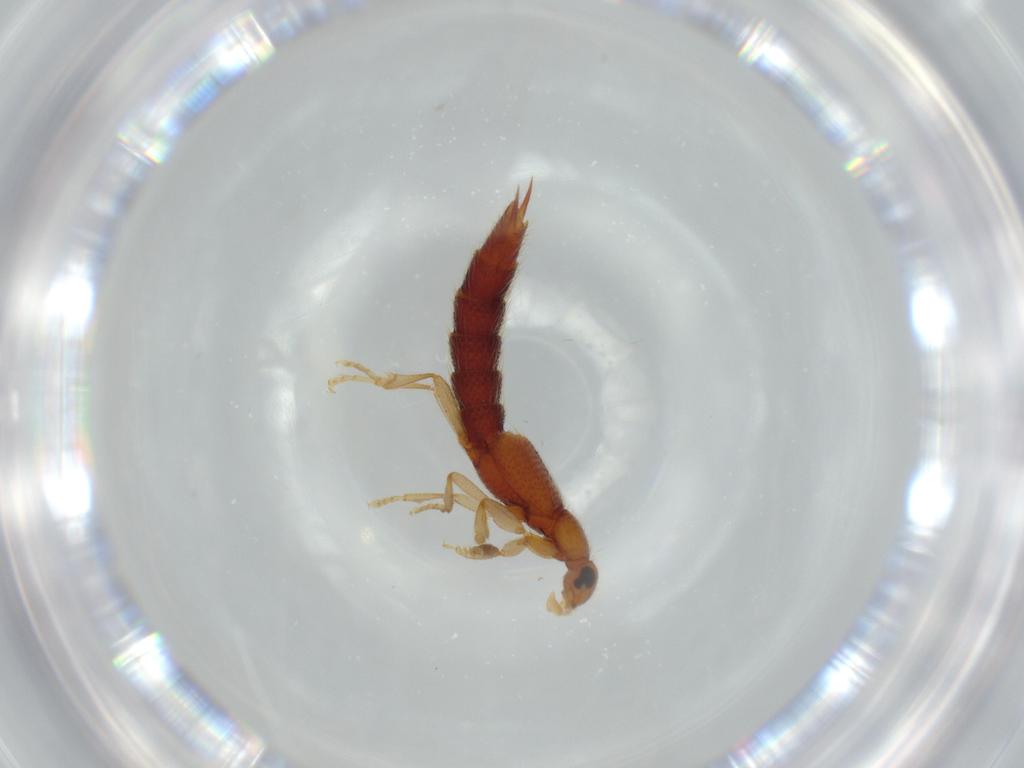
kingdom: Animalia
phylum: Arthropoda
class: Insecta
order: Coleoptera
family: Staphylinidae
